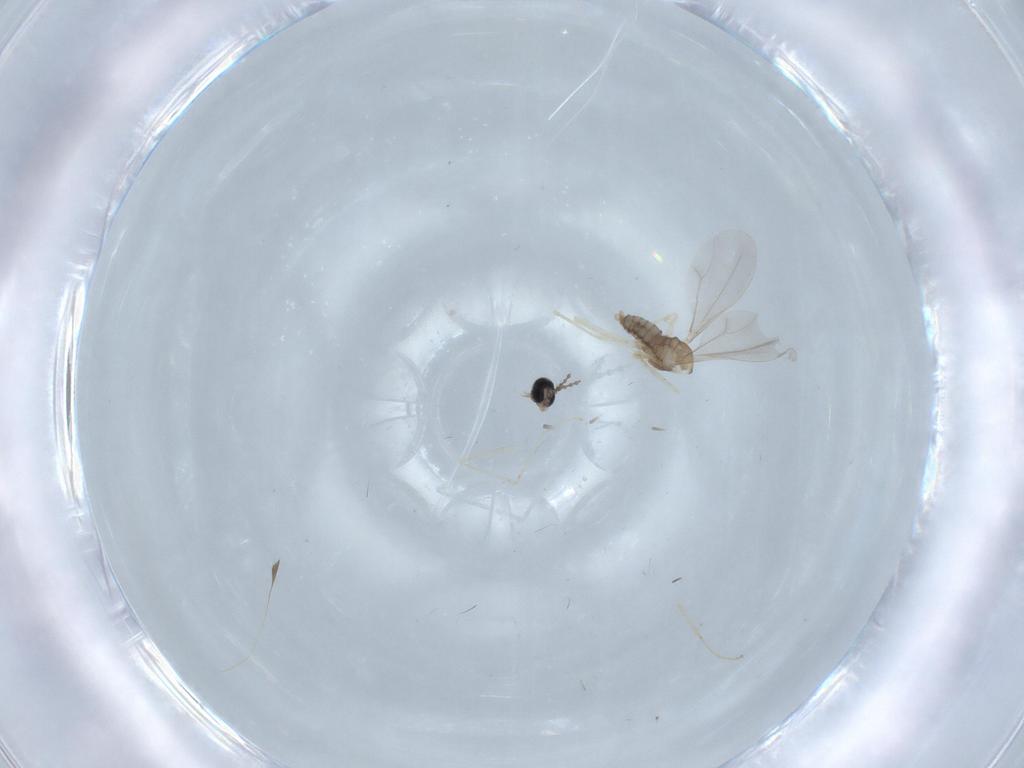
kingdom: Animalia
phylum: Arthropoda
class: Insecta
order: Diptera
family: Cecidomyiidae
